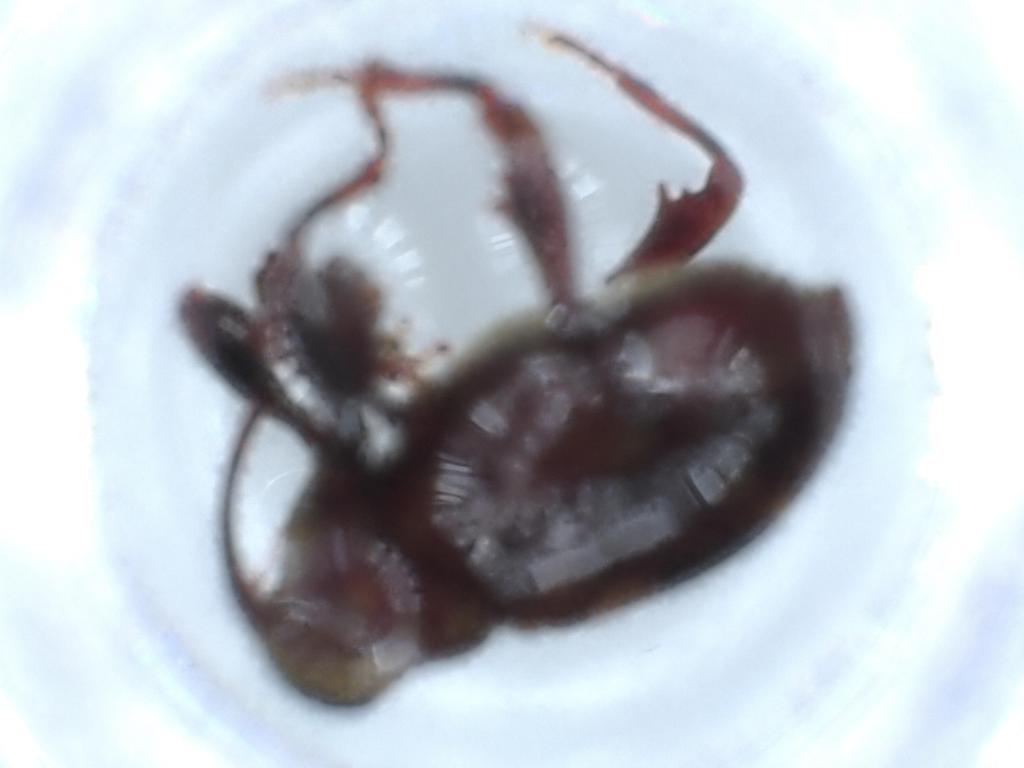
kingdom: Animalia
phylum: Arthropoda
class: Insecta
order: Coleoptera
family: Curculionidae
